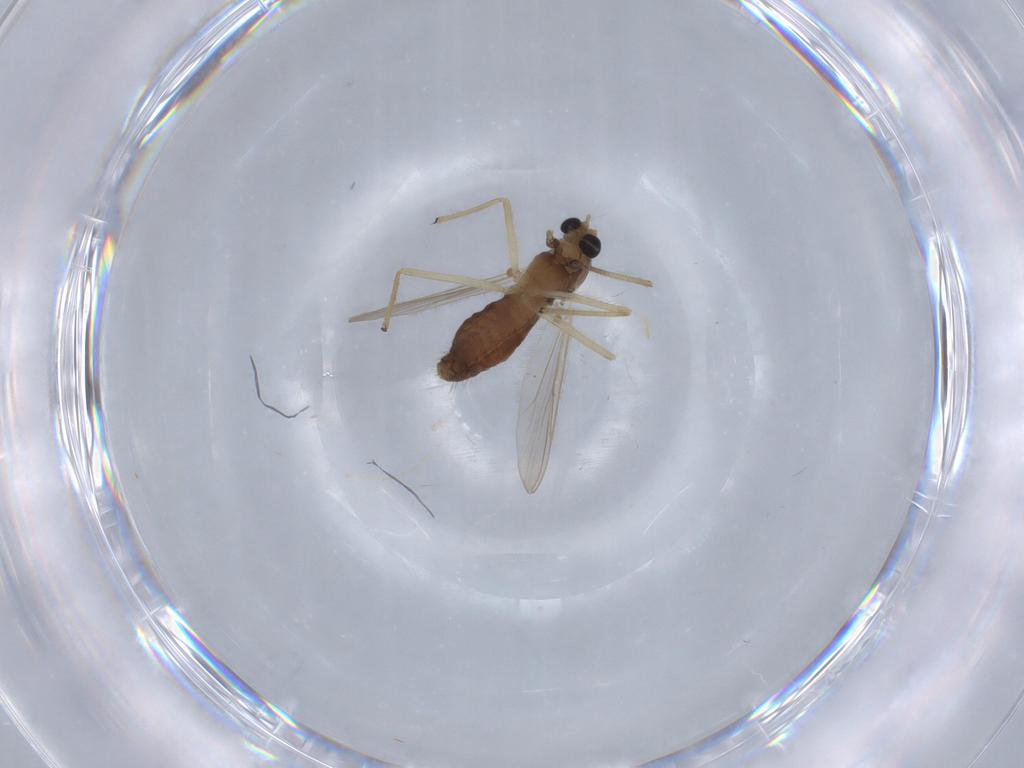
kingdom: Animalia
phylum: Arthropoda
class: Insecta
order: Diptera
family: Chironomidae
